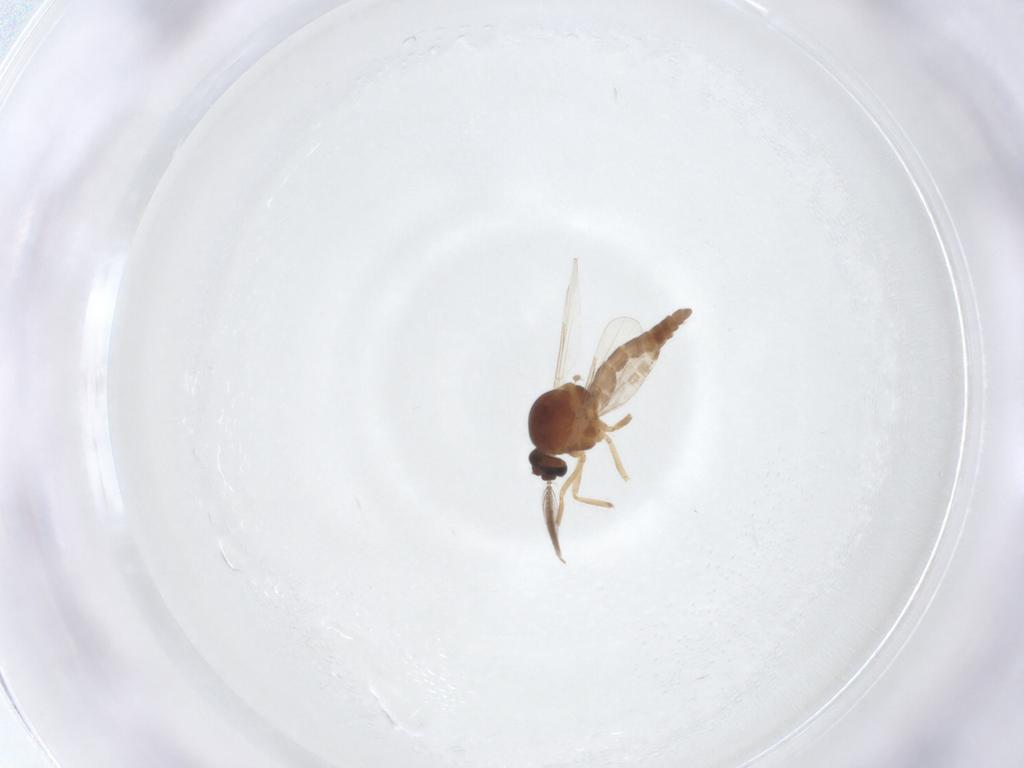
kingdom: Animalia
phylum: Arthropoda
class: Insecta
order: Diptera
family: Ceratopogonidae
